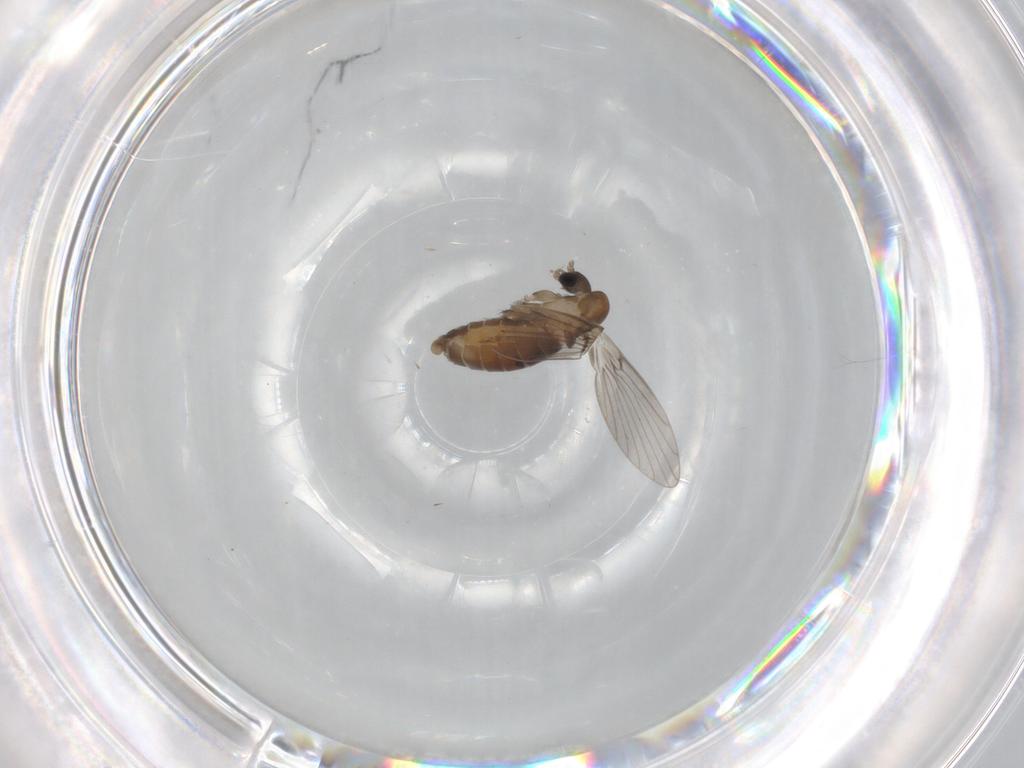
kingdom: Animalia
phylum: Arthropoda
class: Insecta
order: Diptera
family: Psychodidae
